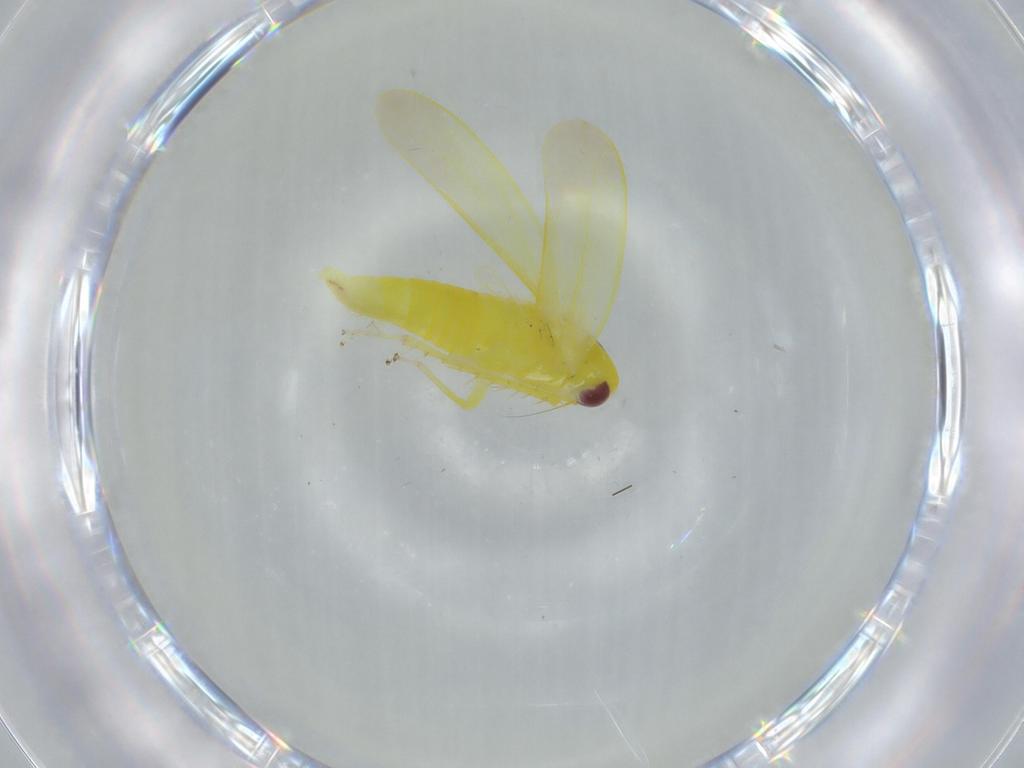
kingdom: Animalia
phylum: Arthropoda
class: Insecta
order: Hemiptera
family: Cicadellidae
